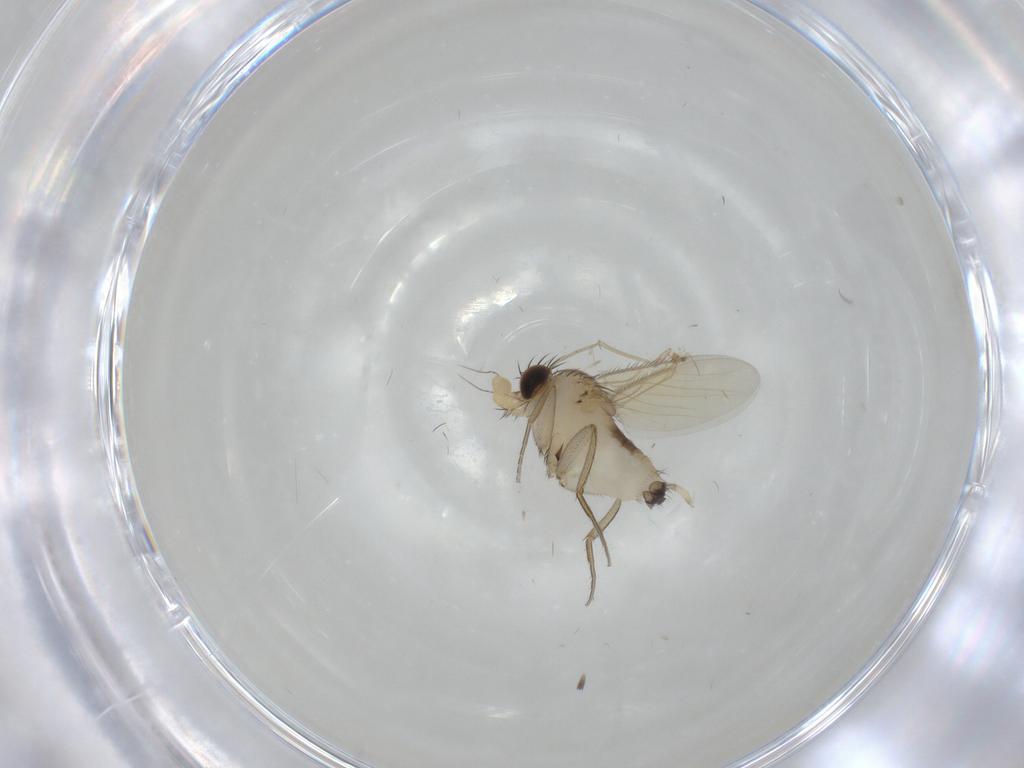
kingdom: Animalia
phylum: Arthropoda
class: Insecta
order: Diptera
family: Phoridae
